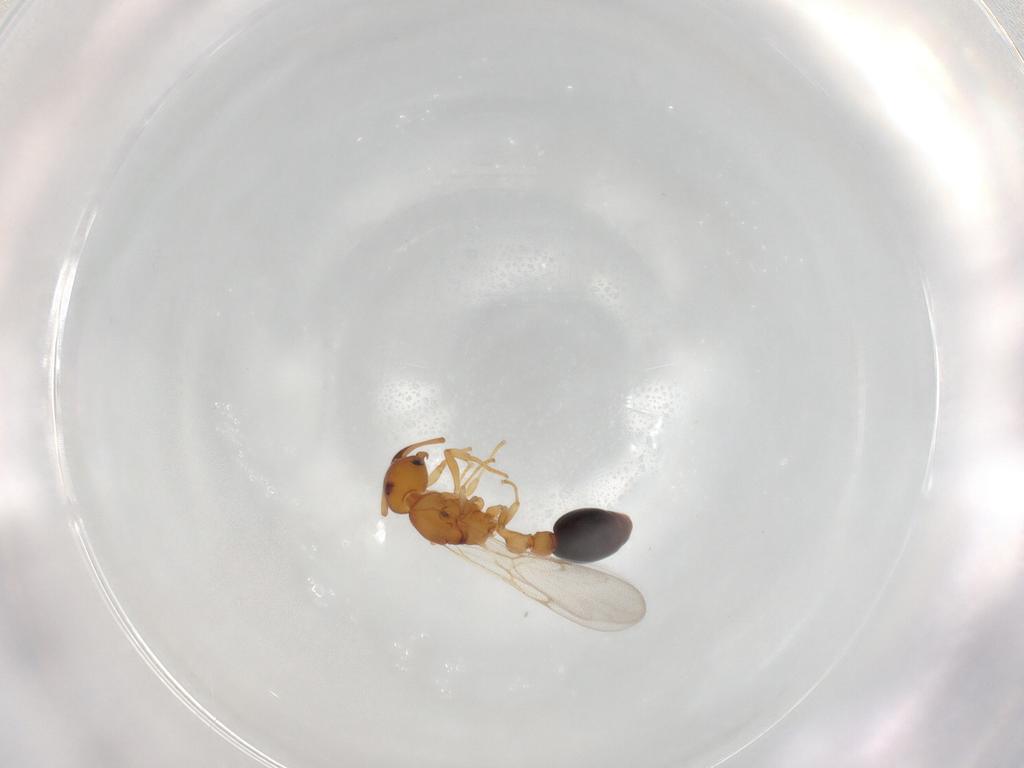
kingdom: Animalia
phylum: Arthropoda
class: Insecta
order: Hymenoptera
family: Formicidae
